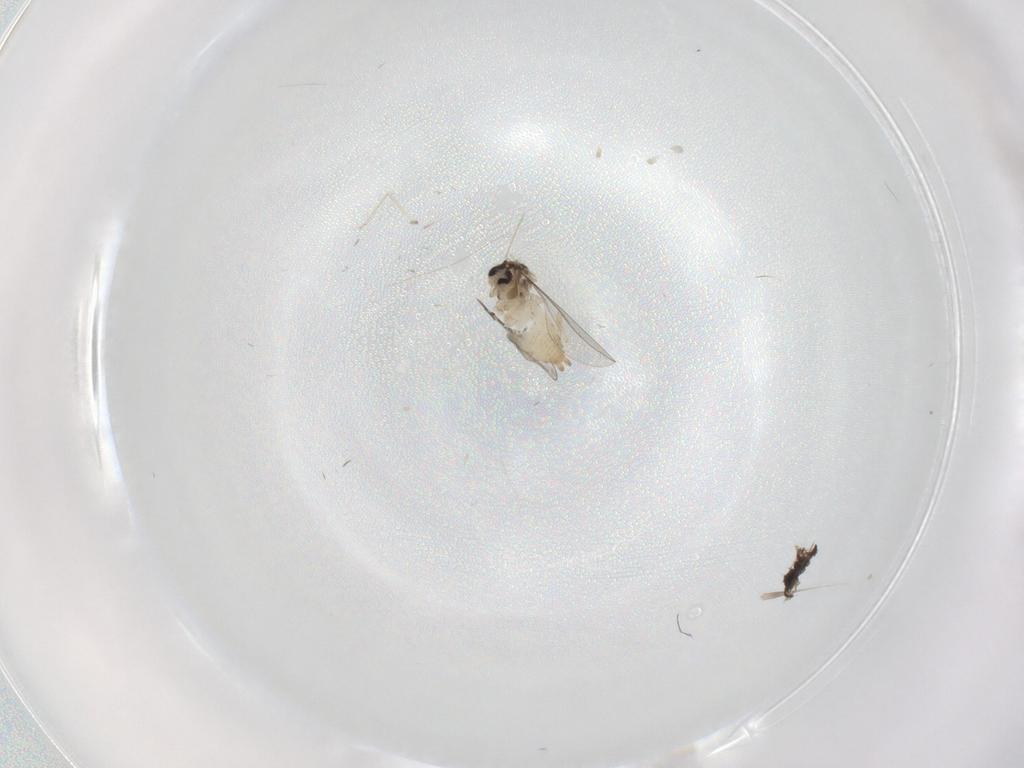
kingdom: Animalia
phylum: Arthropoda
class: Insecta
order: Diptera
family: Cecidomyiidae
